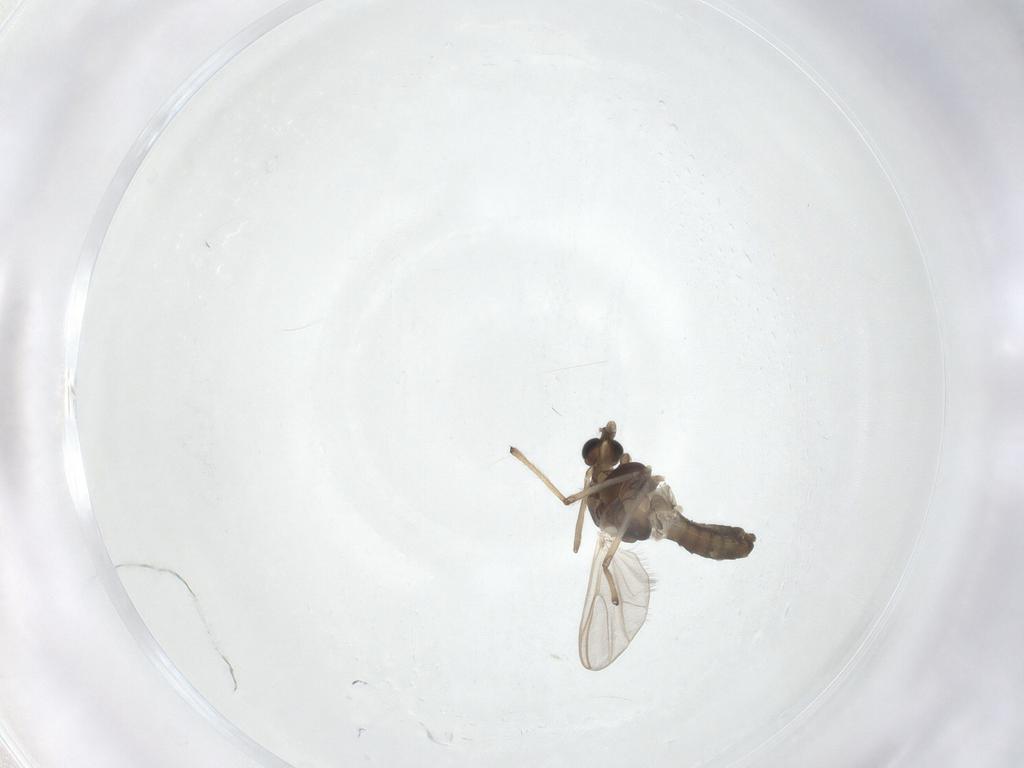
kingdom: Animalia
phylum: Arthropoda
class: Insecta
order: Diptera
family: Chironomidae
